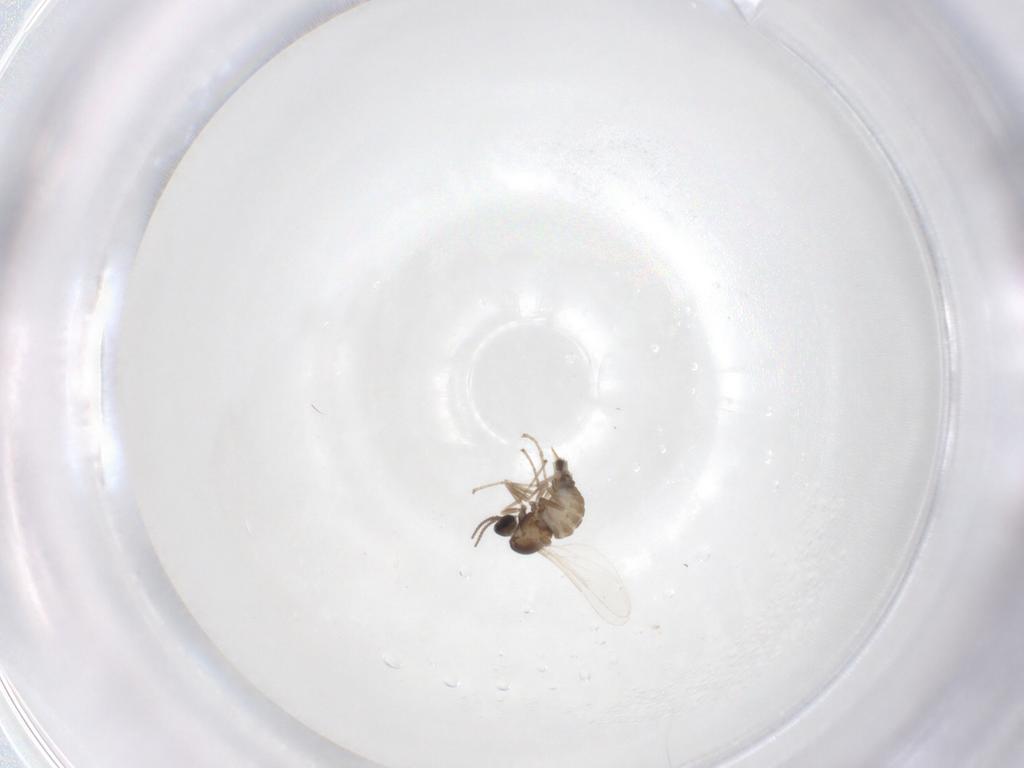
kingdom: Animalia
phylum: Arthropoda
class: Insecta
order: Diptera
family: Cecidomyiidae
